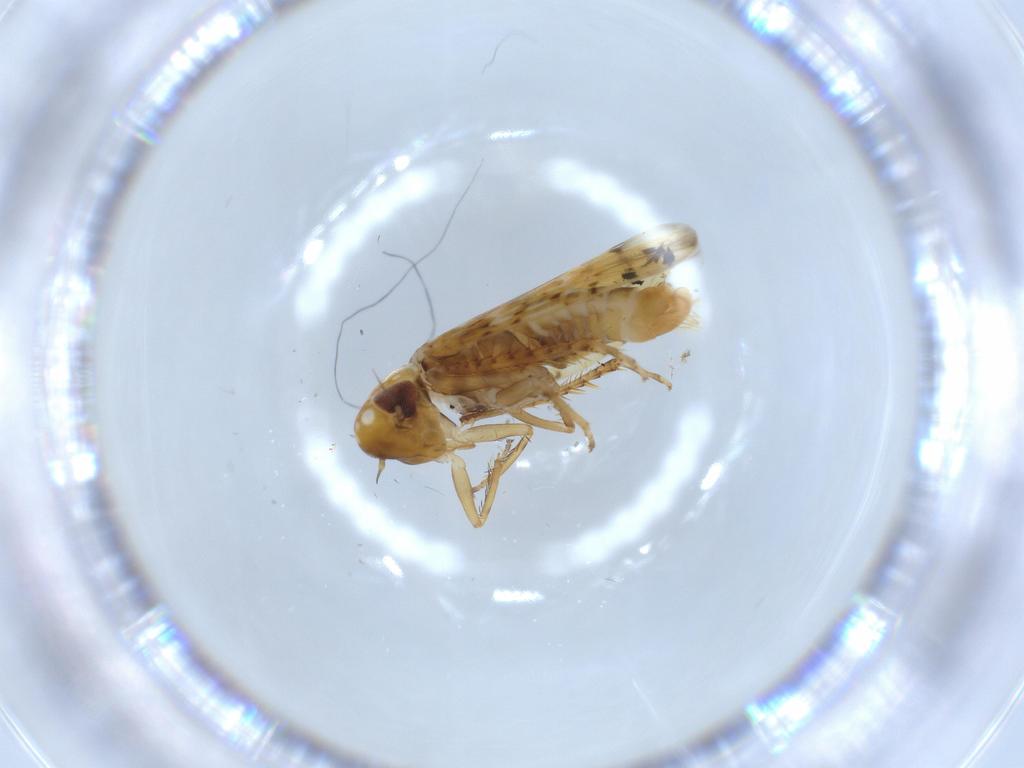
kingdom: Animalia
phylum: Arthropoda
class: Insecta
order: Hemiptera
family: Cicadellidae
